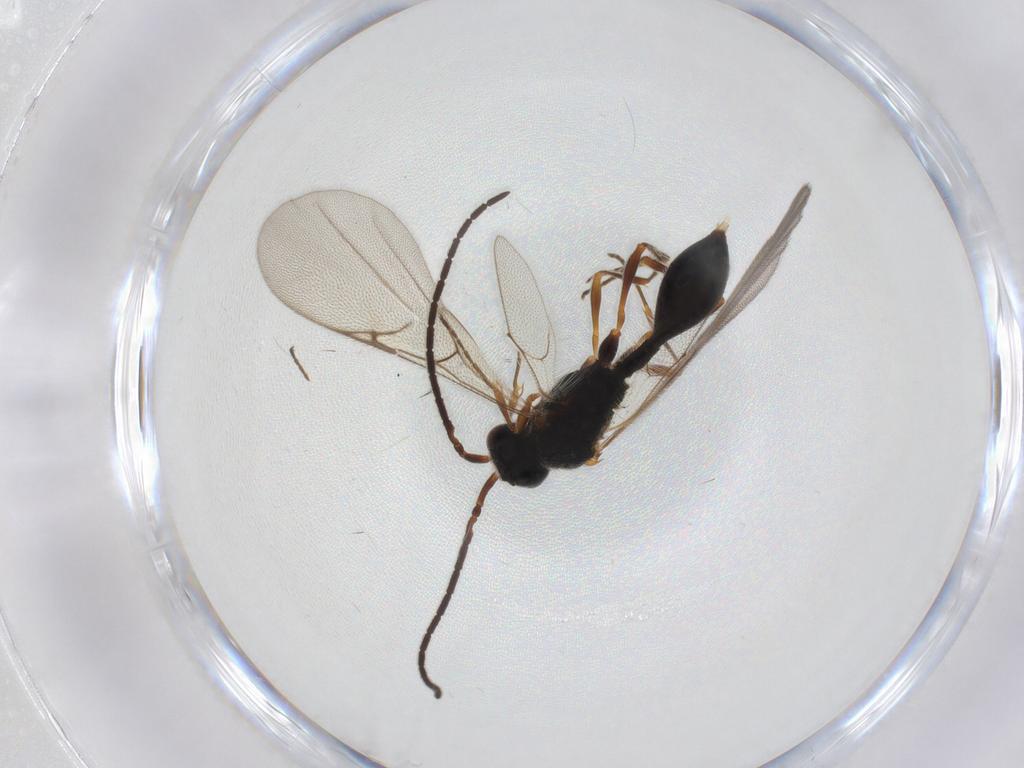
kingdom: Animalia
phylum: Arthropoda
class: Insecta
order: Hymenoptera
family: Diapriidae
